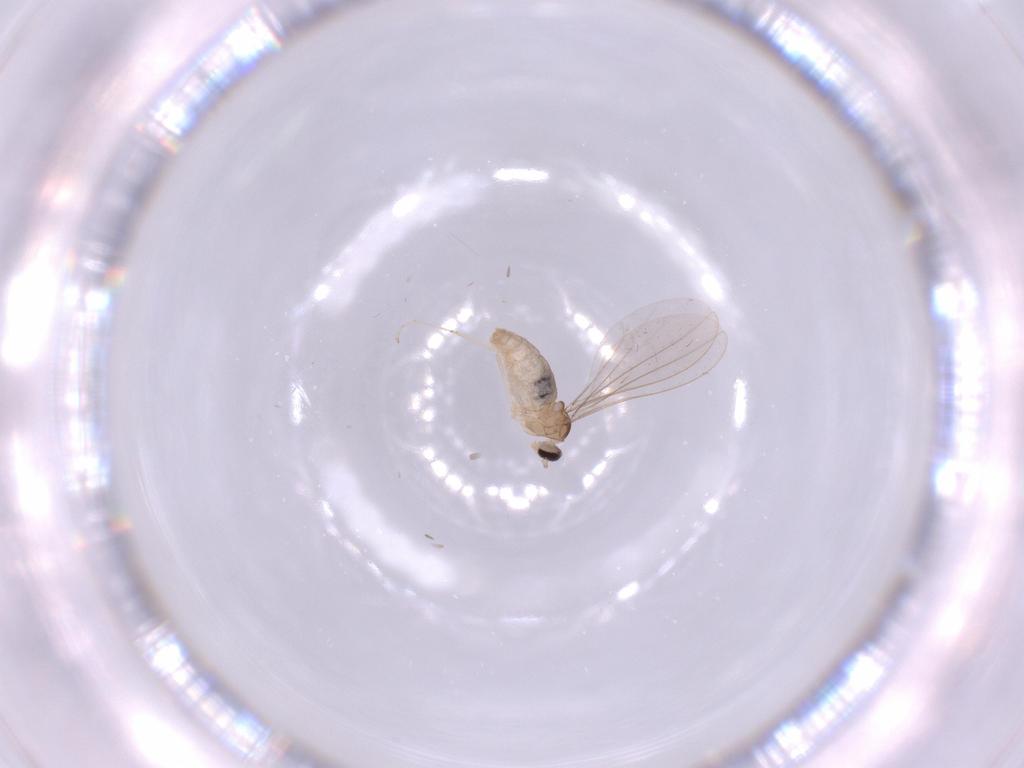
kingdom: Animalia
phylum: Arthropoda
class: Insecta
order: Diptera
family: Cecidomyiidae
